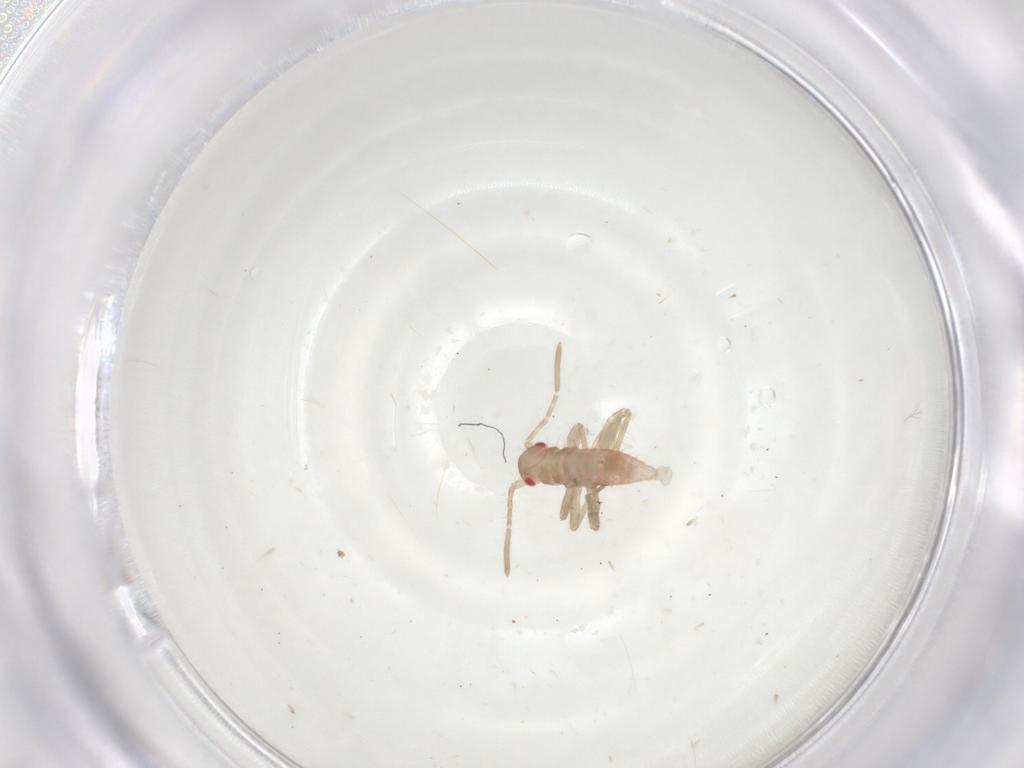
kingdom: Animalia
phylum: Arthropoda
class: Insecta
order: Hemiptera
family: Miridae
